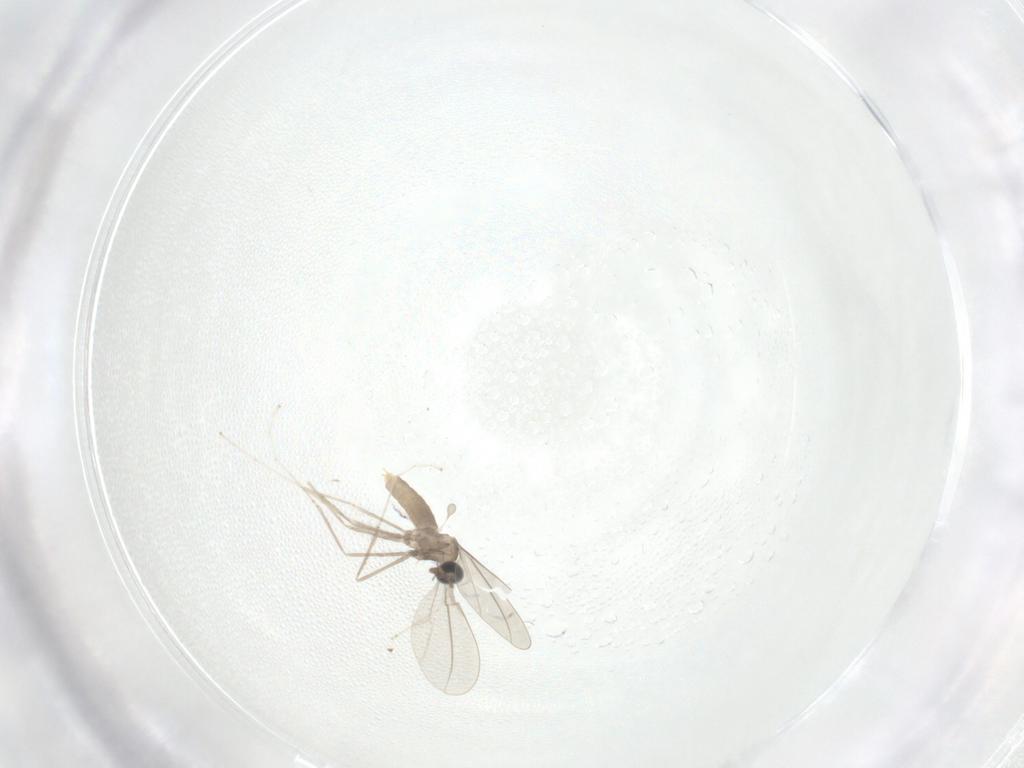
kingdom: Animalia
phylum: Arthropoda
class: Insecta
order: Diptera
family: Cecidomyiidae
